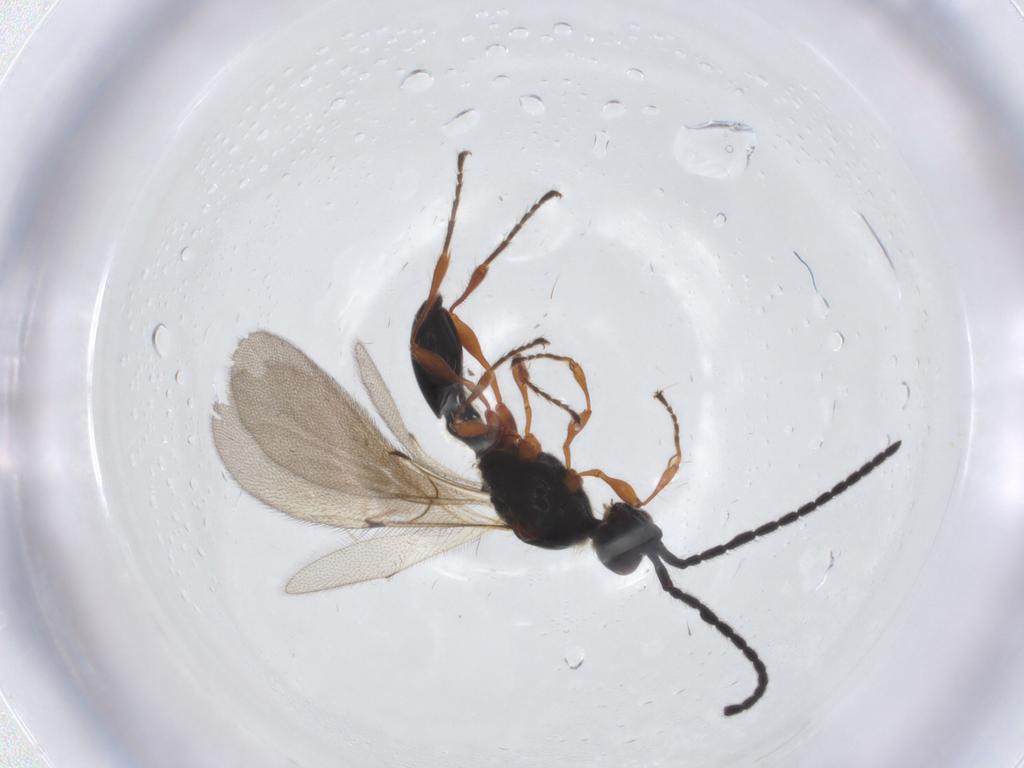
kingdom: Animalia
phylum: Arthropoda
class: Insecta
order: Hymenoptera
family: Diapriidae
